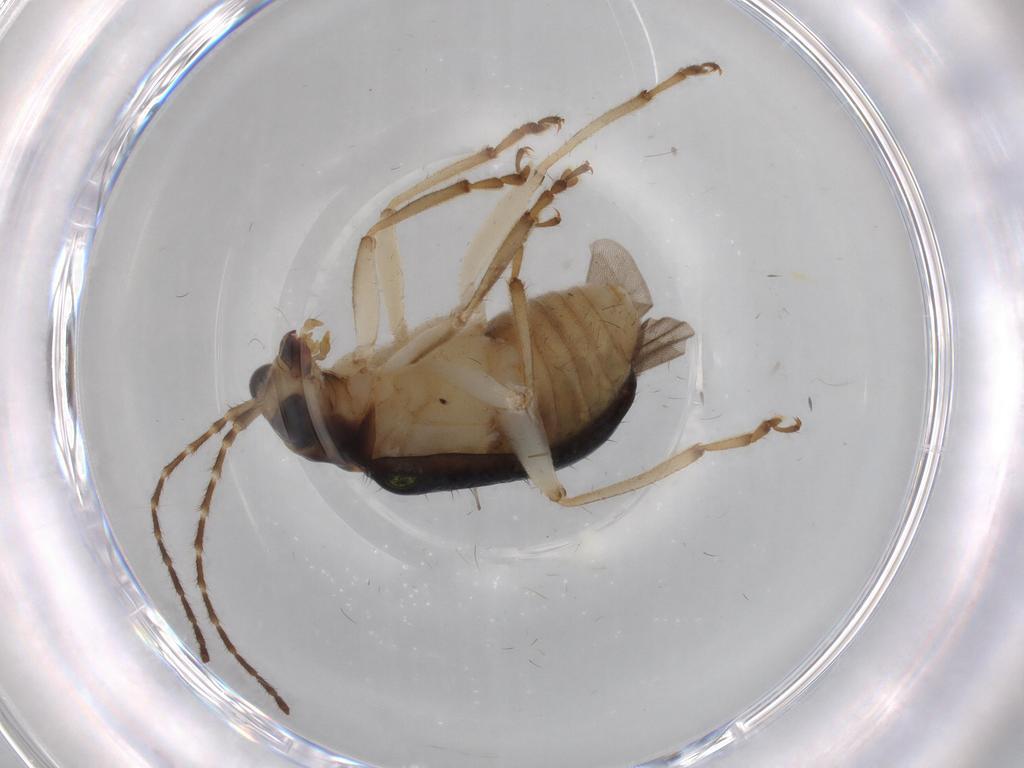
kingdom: Animalia
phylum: Arthropoda
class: Insecta
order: Coleoptera
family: Chrysomelidae
